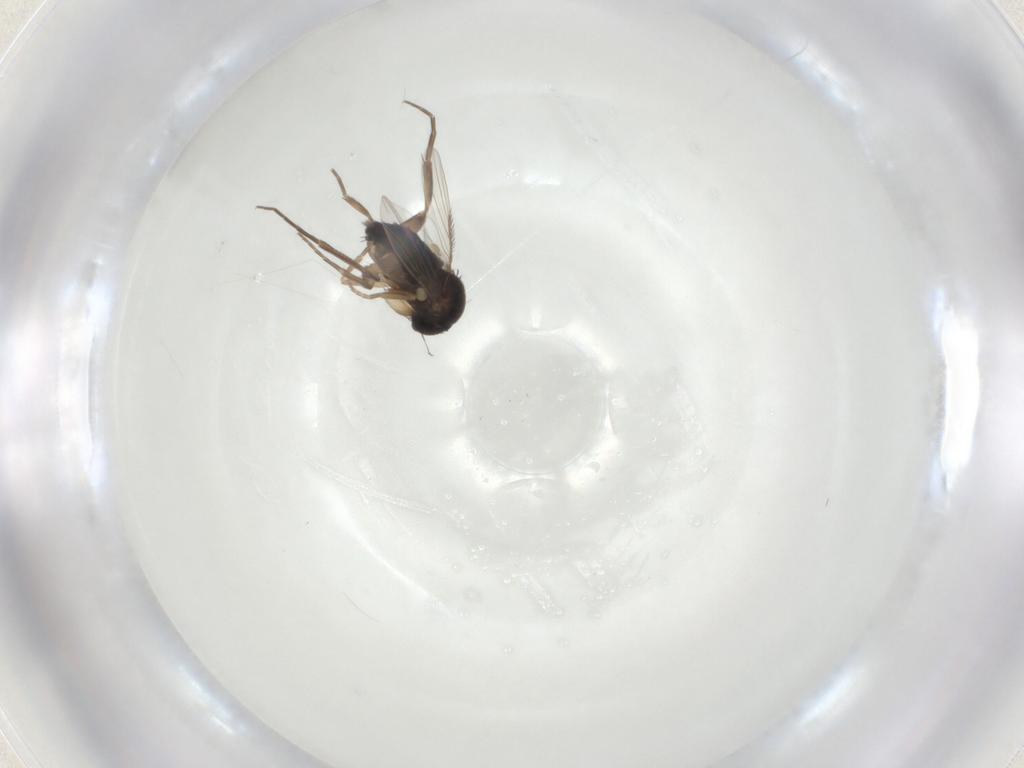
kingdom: Animalia
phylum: Arthropoda
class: Insecta
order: Diptera
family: Phoridae
